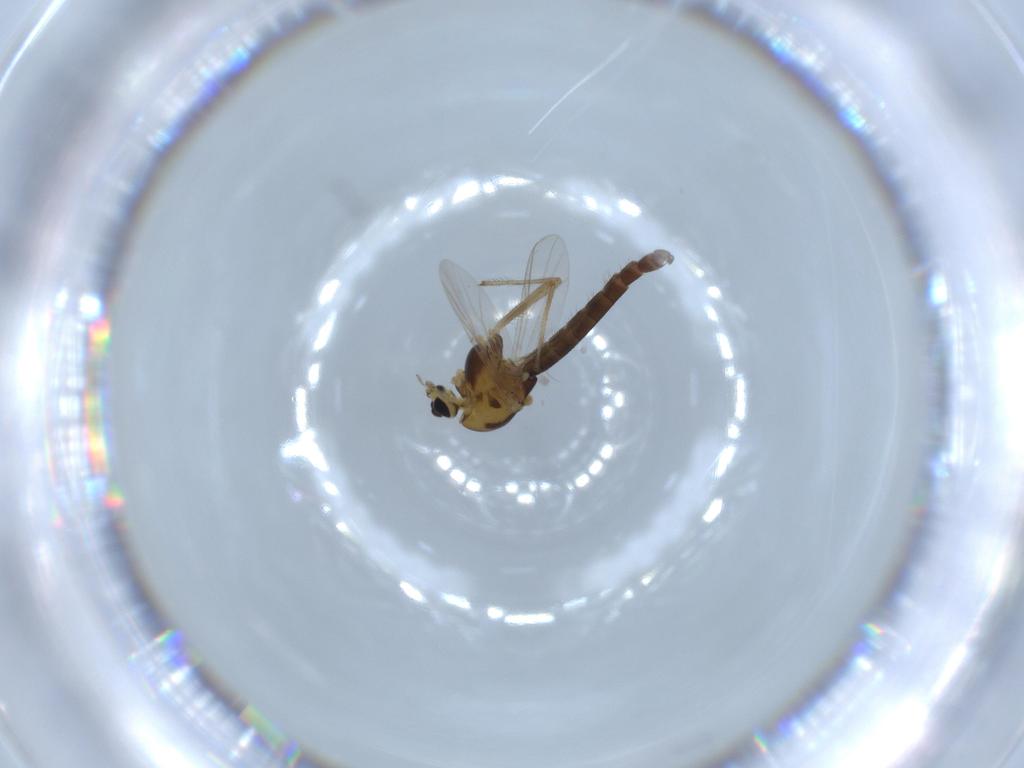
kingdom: Animalia
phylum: Arthropoda
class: Insecta
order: Diptera
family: Chironomidae
